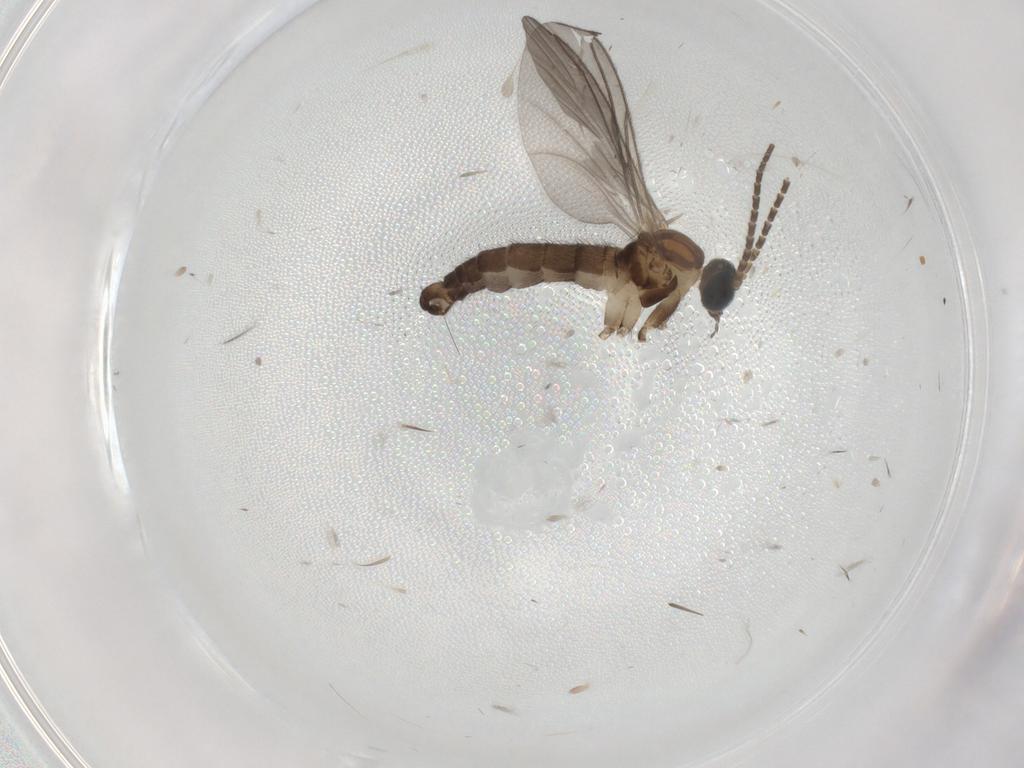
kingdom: Animalia
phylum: Arthropoda
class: Insecta
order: Diptera
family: Sciaridae
